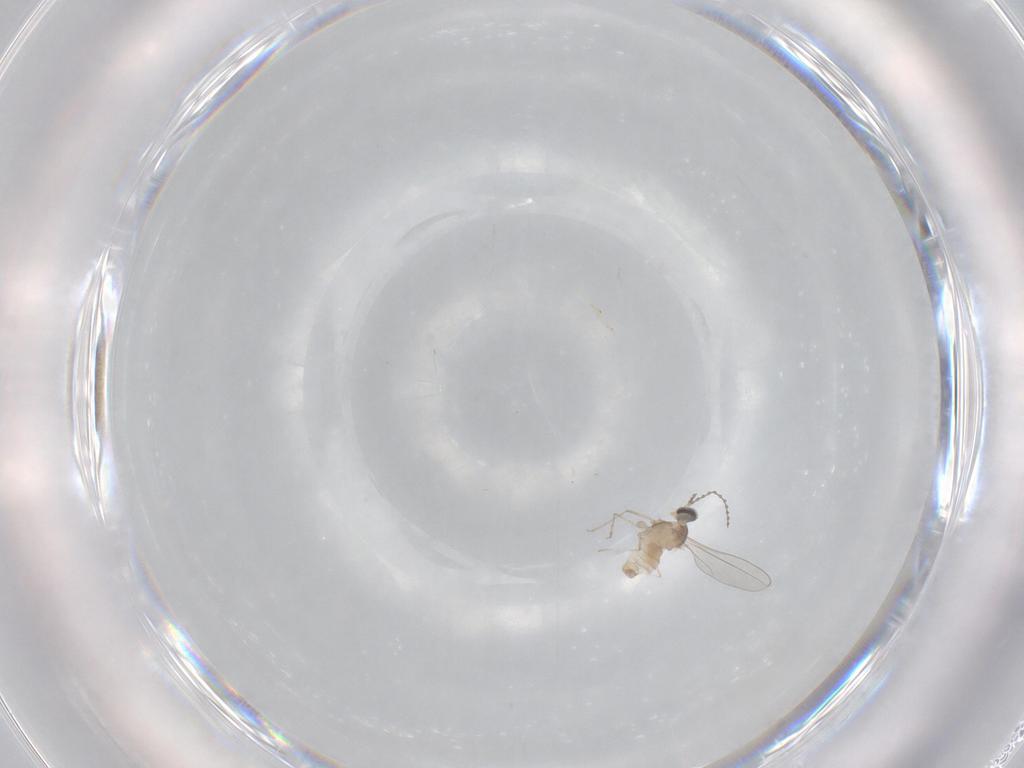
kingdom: Animalia
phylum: Arthropoda
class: Insecta
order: Diptera
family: Cecidomyiidae
